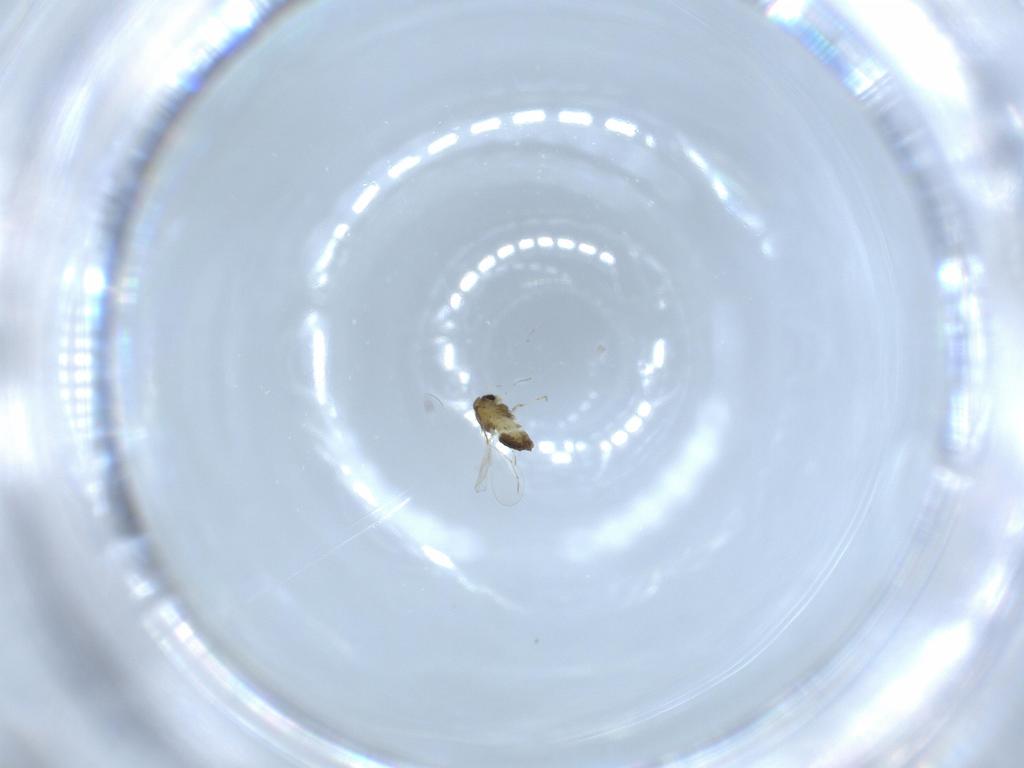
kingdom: Animalia
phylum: Arthropoda
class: Insecta
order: Diptera
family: Chironomidae
